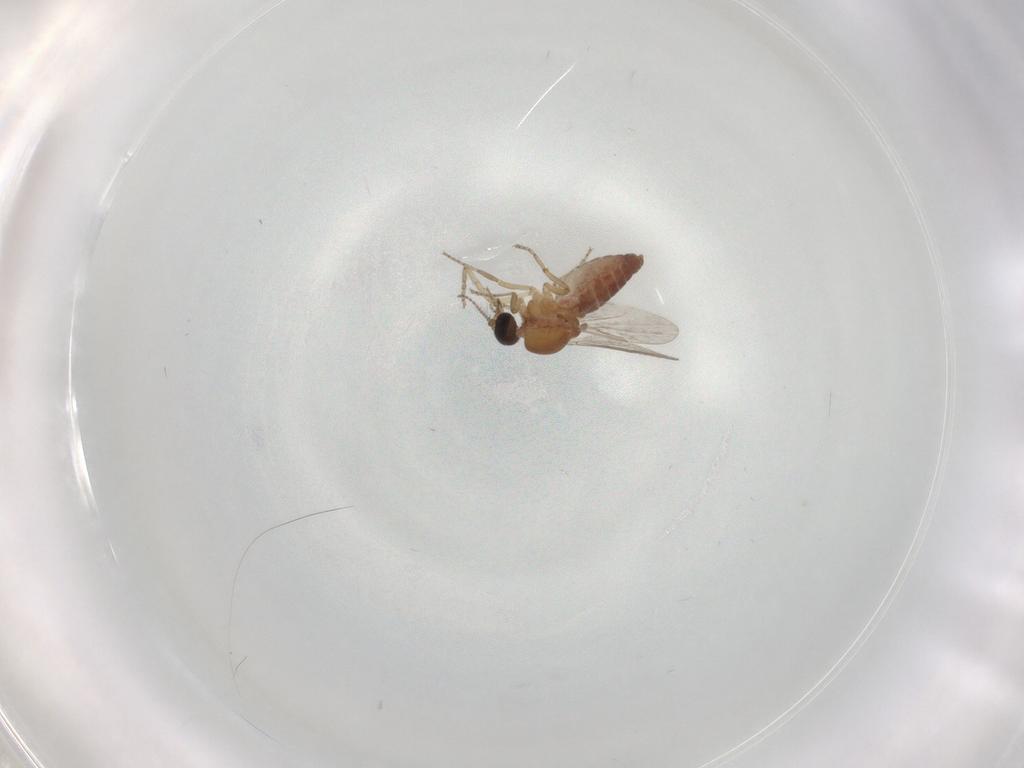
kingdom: Animalia
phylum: Arthropoda
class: Insecta
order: Diptera
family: Ceratopogonidae
